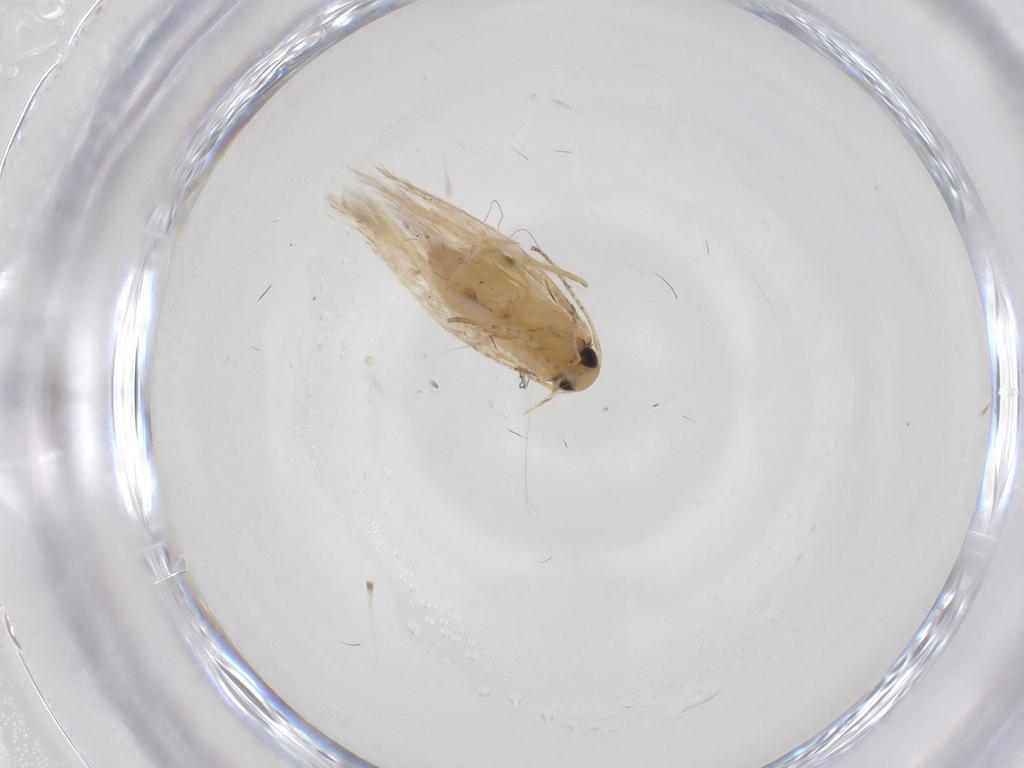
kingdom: Animalia
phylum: Arthropoda
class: Insecta
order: Lepidoptera
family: Gelechiidae
